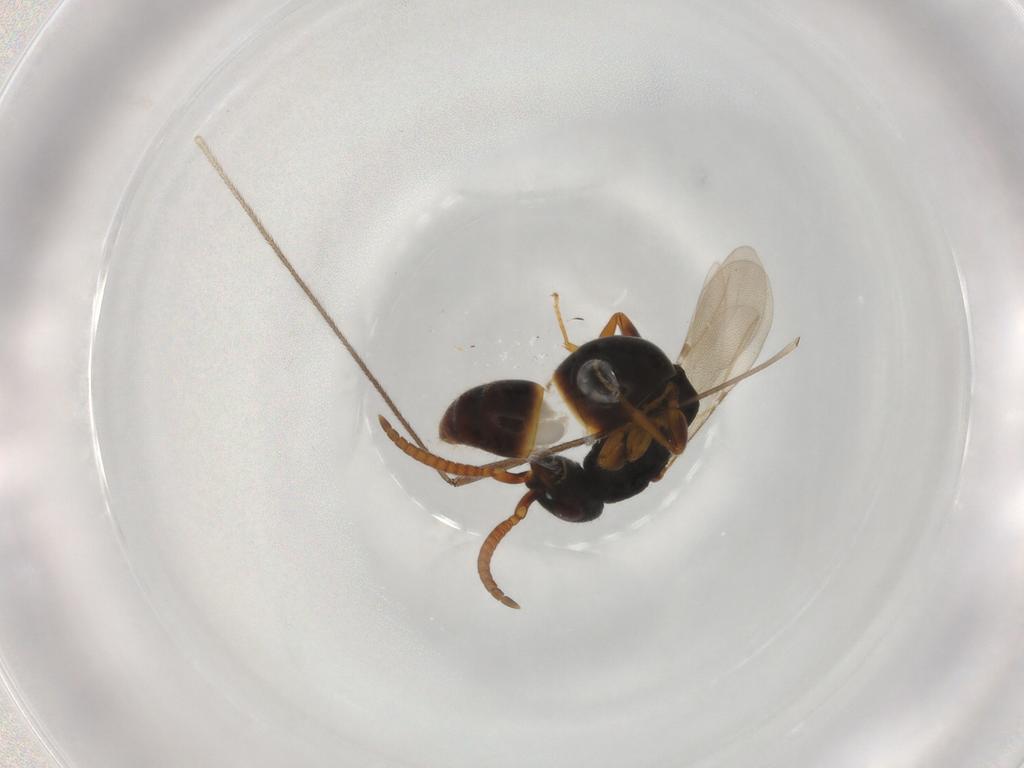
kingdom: Animalia
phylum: Arthropoda
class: Insecta
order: Hymenoptera
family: Bethylidae
